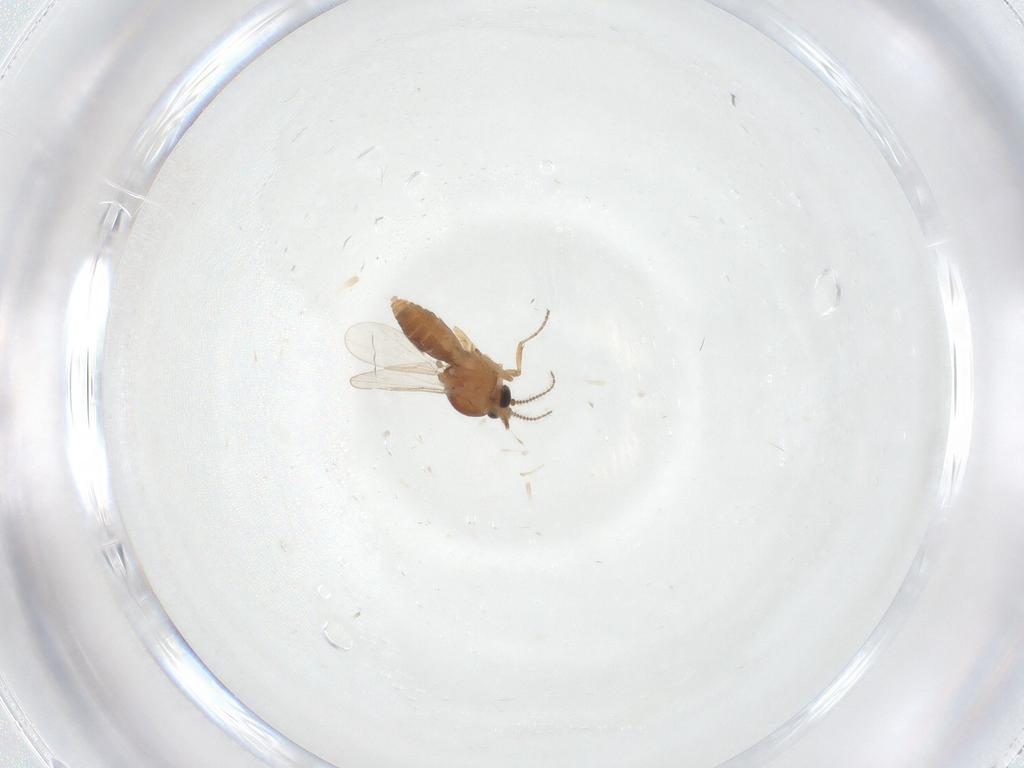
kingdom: Animalia
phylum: Arthropoda
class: Insecta
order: Diptera
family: Ceratopogonidae
